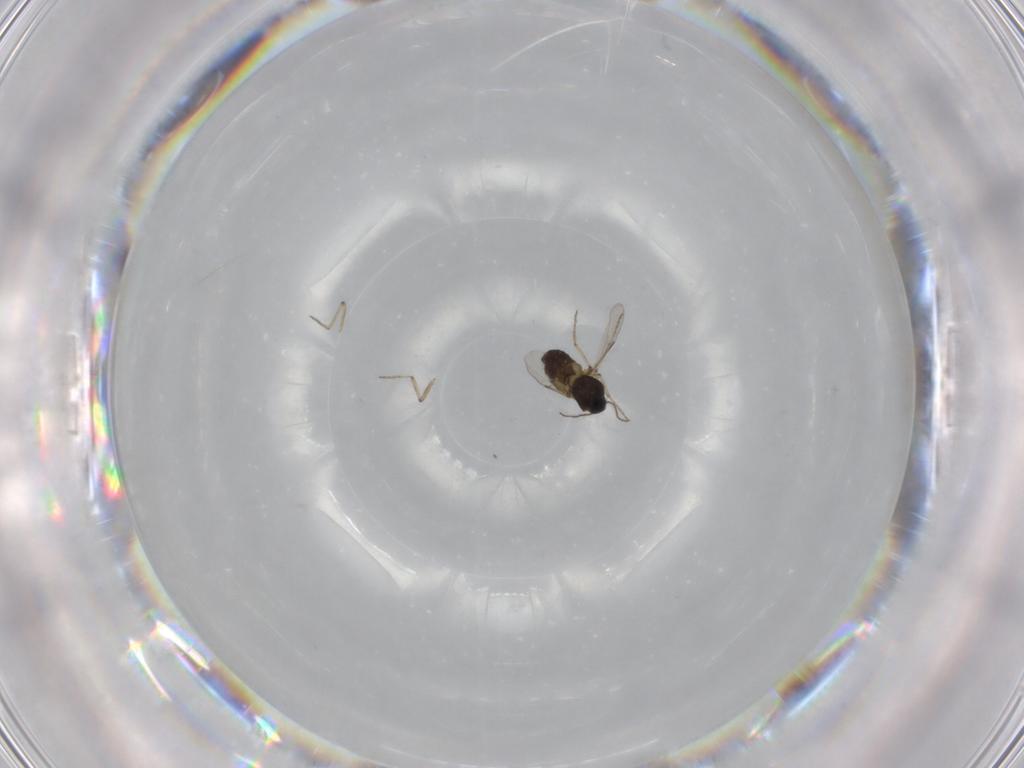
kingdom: Animalia
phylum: Arthropoda
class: Insecta
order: Diptera
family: Ceratopogonidae
